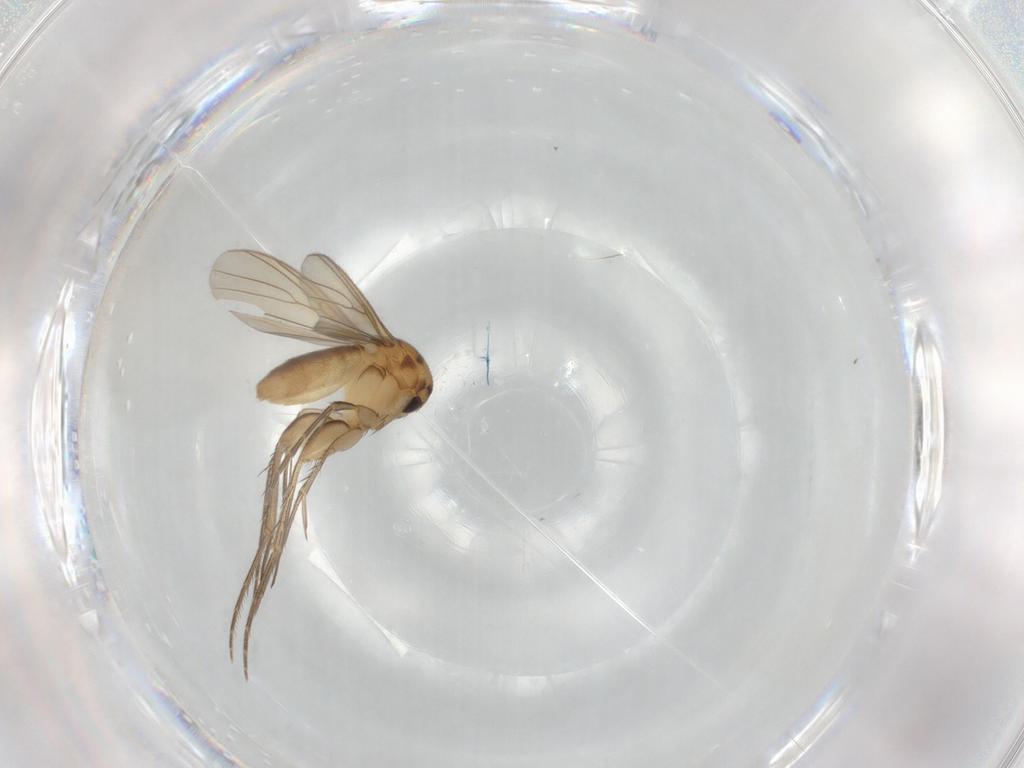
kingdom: Animalia
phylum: Arthropoda
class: Insecta
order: Diptera
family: Mycetophilidae
